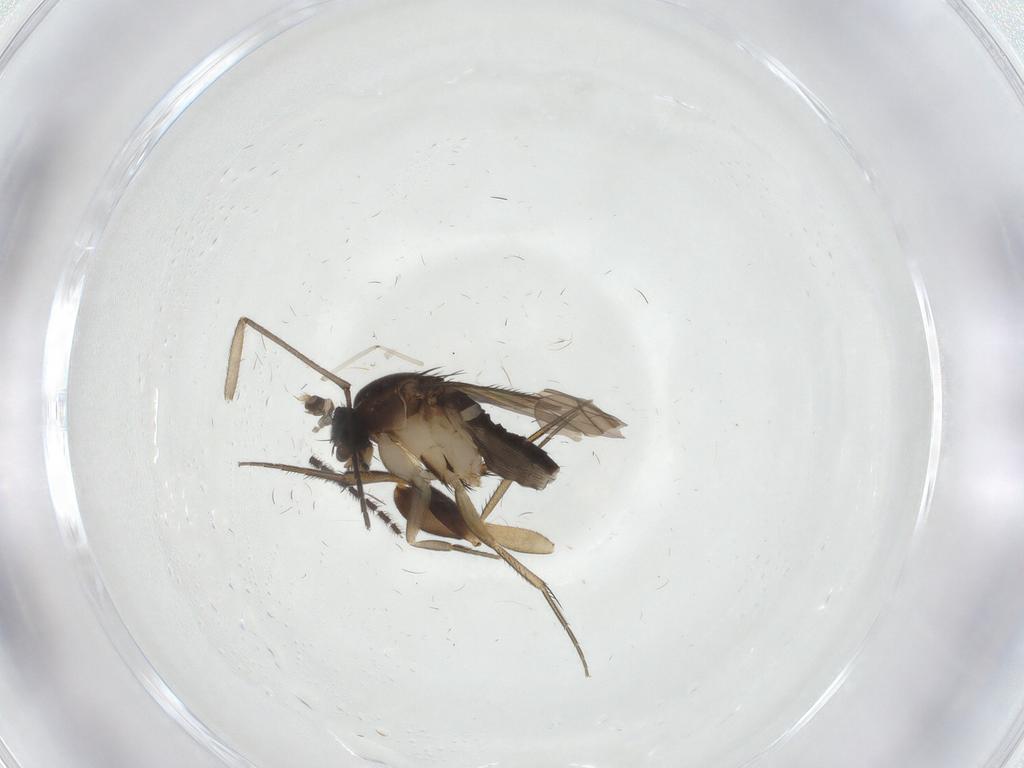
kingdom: Animalia
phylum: Arthropoda
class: Insecta
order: Diptera
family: Phoridae
